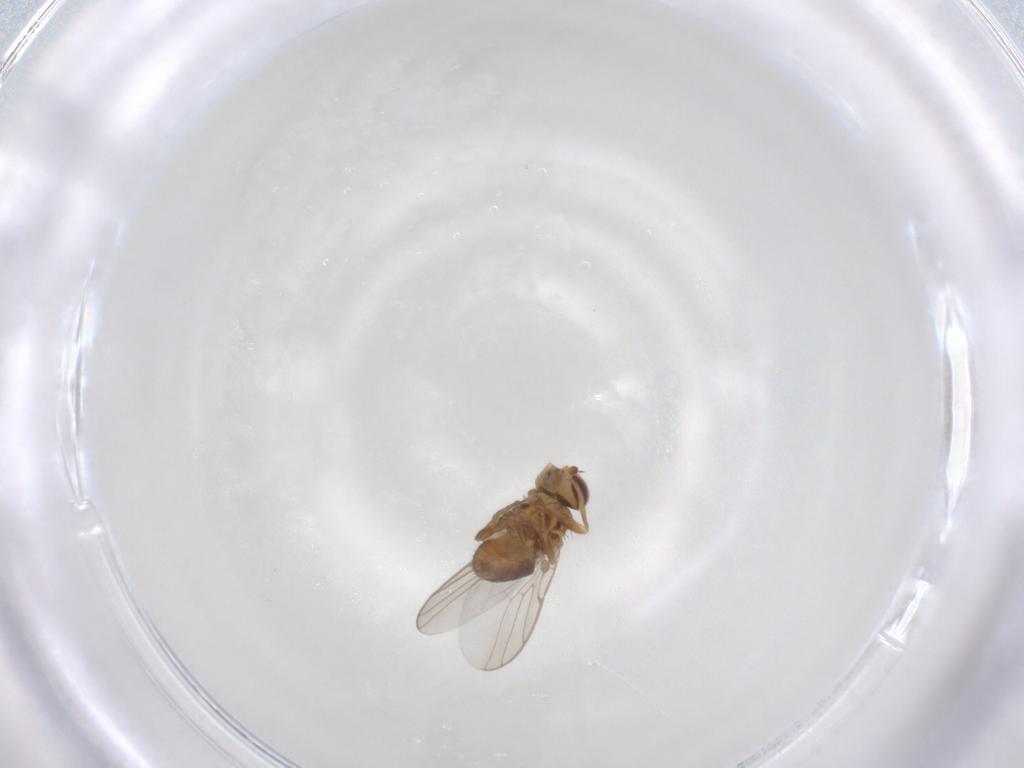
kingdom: Animalia
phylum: Arthropoda
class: Insecta
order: Diptera
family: Chloropidae
